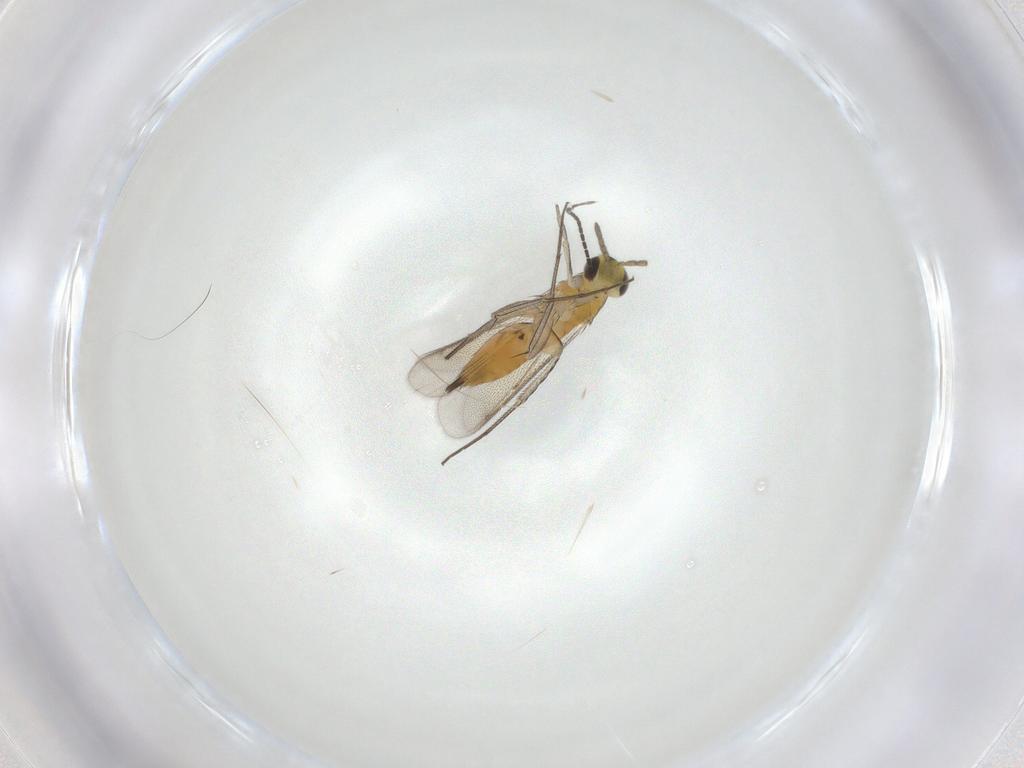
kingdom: Animalia
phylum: Arthropoda
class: Insecta
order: Hymenoptera
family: Eulophidae
